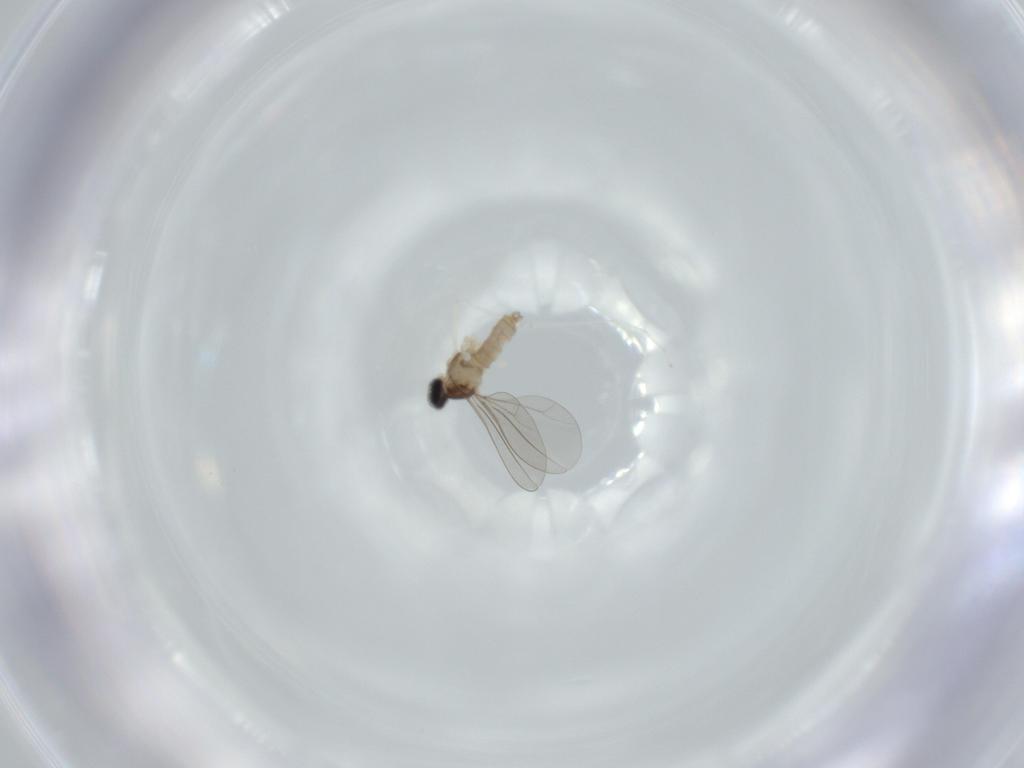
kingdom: Animalia
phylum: Arthropoda
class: Insecta
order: Diptera
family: Cecidomyiidae
